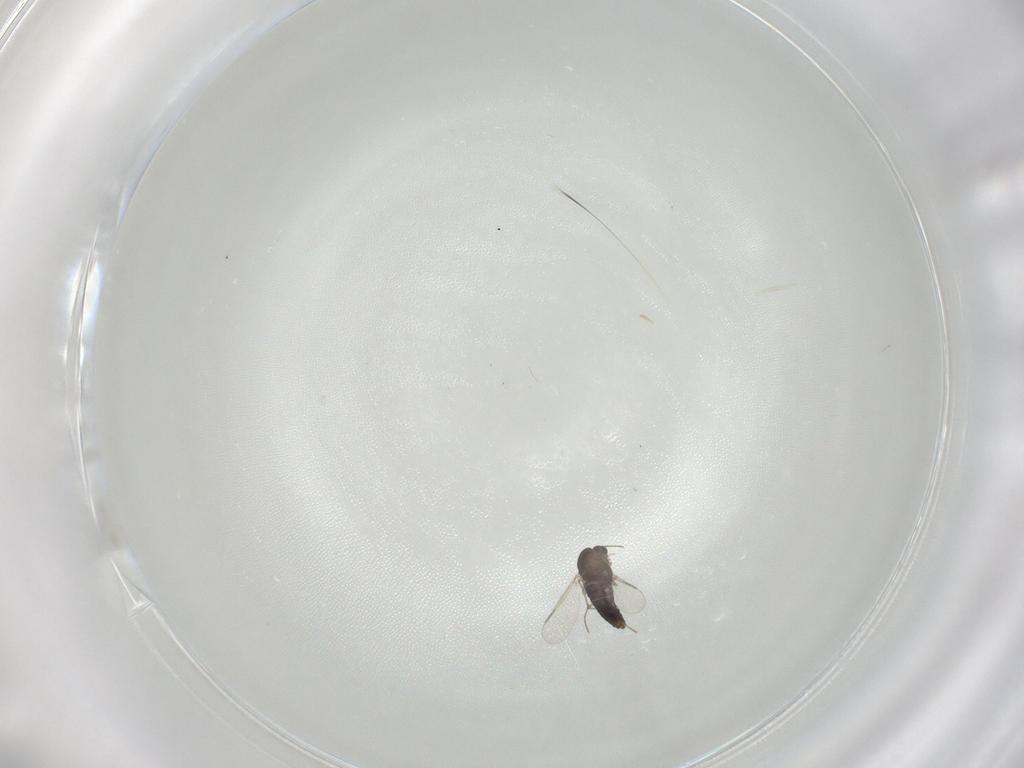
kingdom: Animalia
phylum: Arthropoda
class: Insecta
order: Diptera
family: Chironomidae
